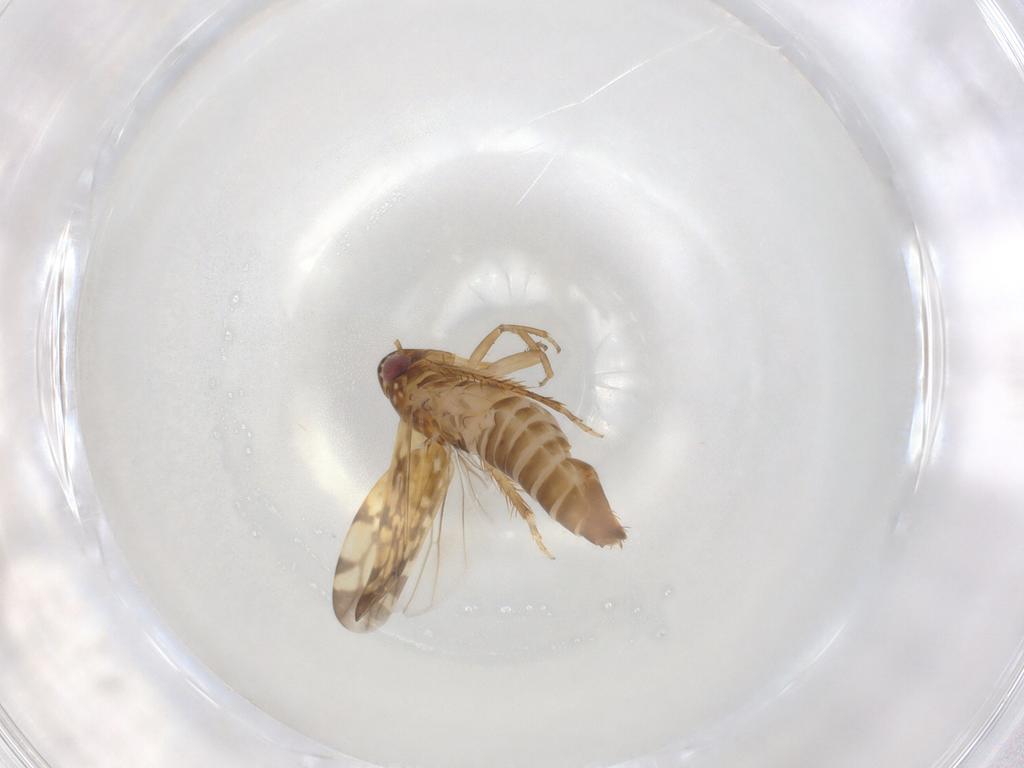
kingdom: Animalia
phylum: Arthropoda
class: Insecta
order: Hemiptera
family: Cicadellidae
